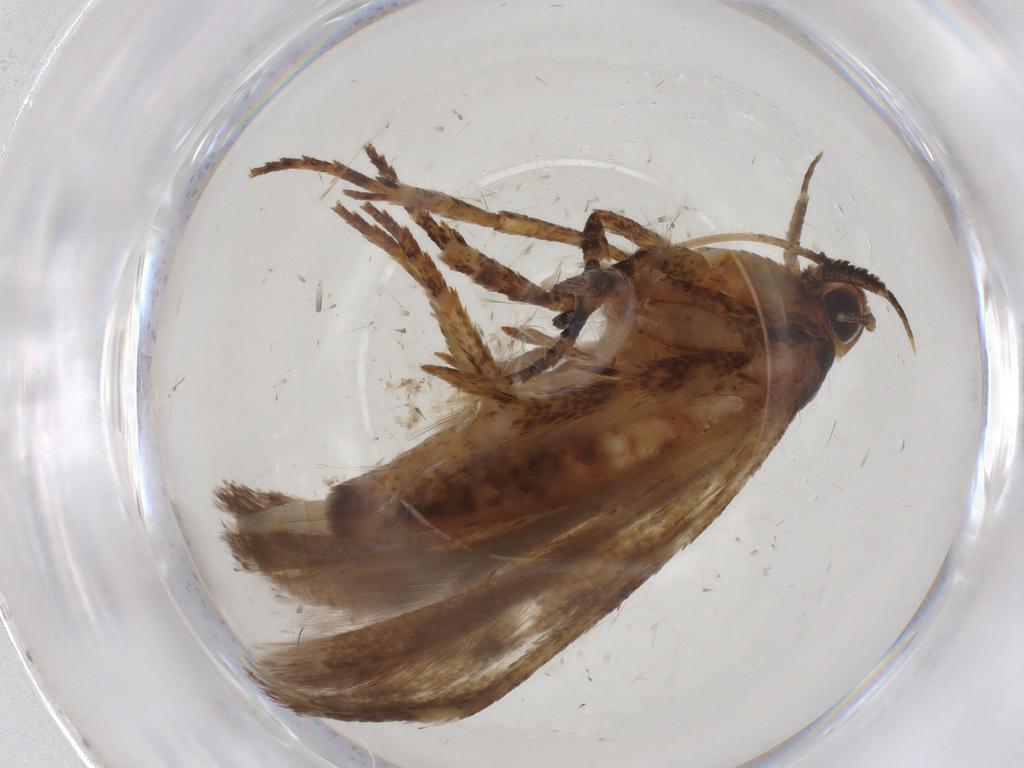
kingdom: Animalia
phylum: Arthropoda
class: Insecta
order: Lepidoptera
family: Gelechiidae
